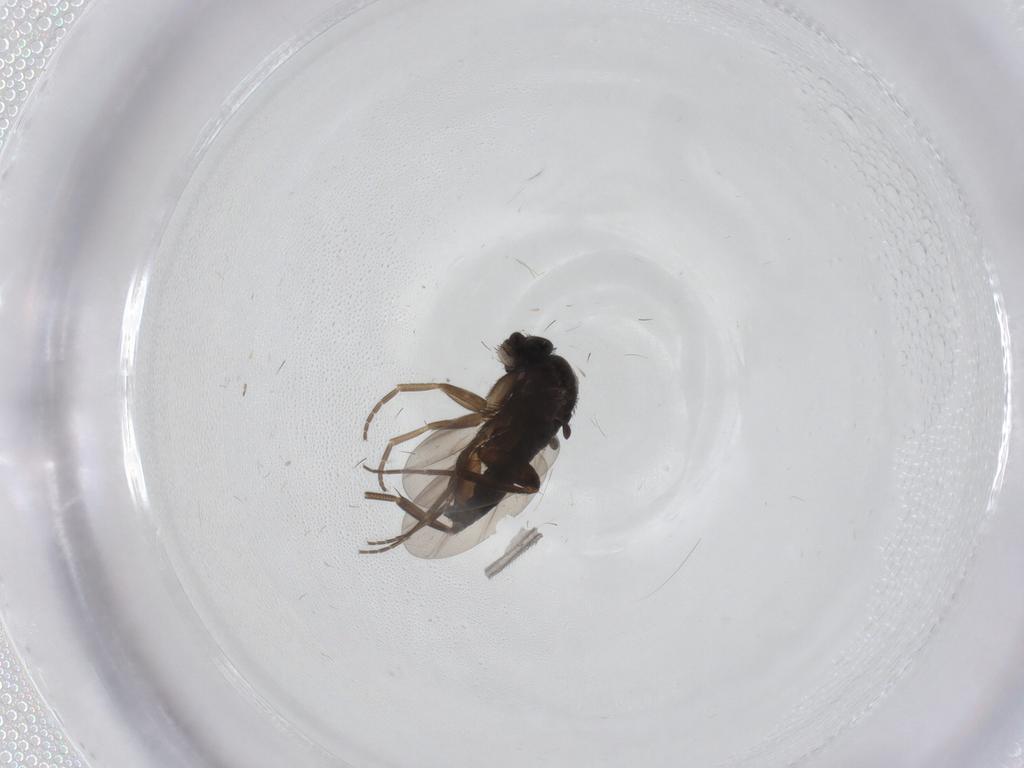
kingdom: Animalia
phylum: Arthropoda
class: Insecta
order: Diptera
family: Phoridae
